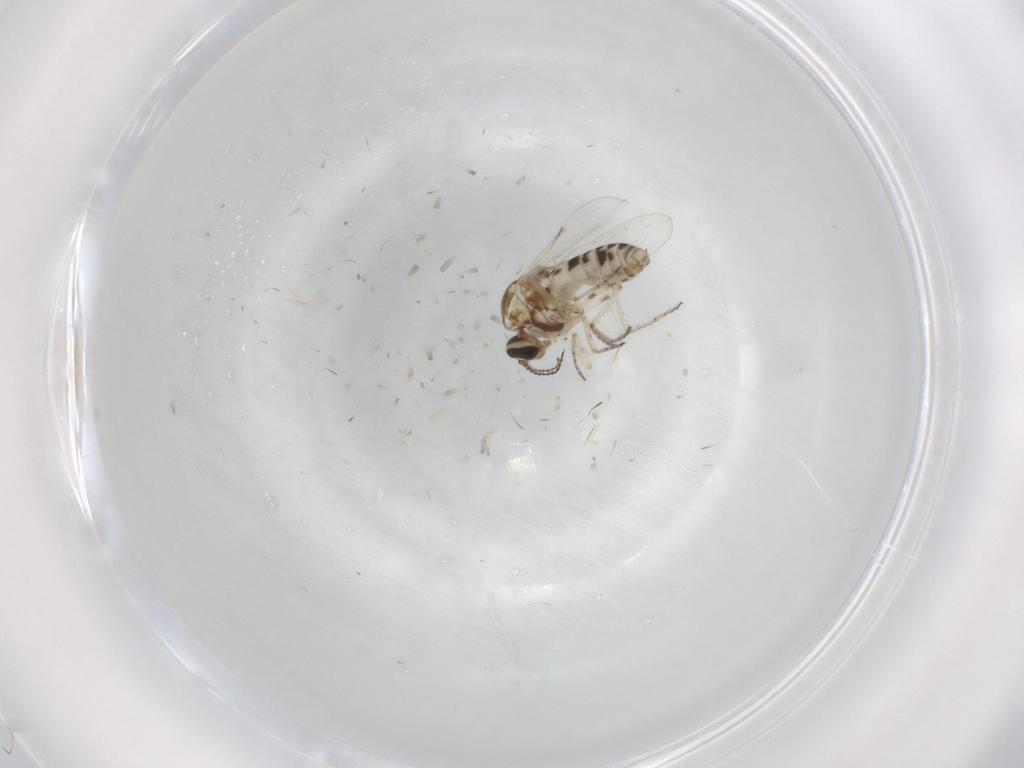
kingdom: Animalia
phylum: Arthropoda
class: Insecta
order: Diptera
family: Ceratopogonidae
